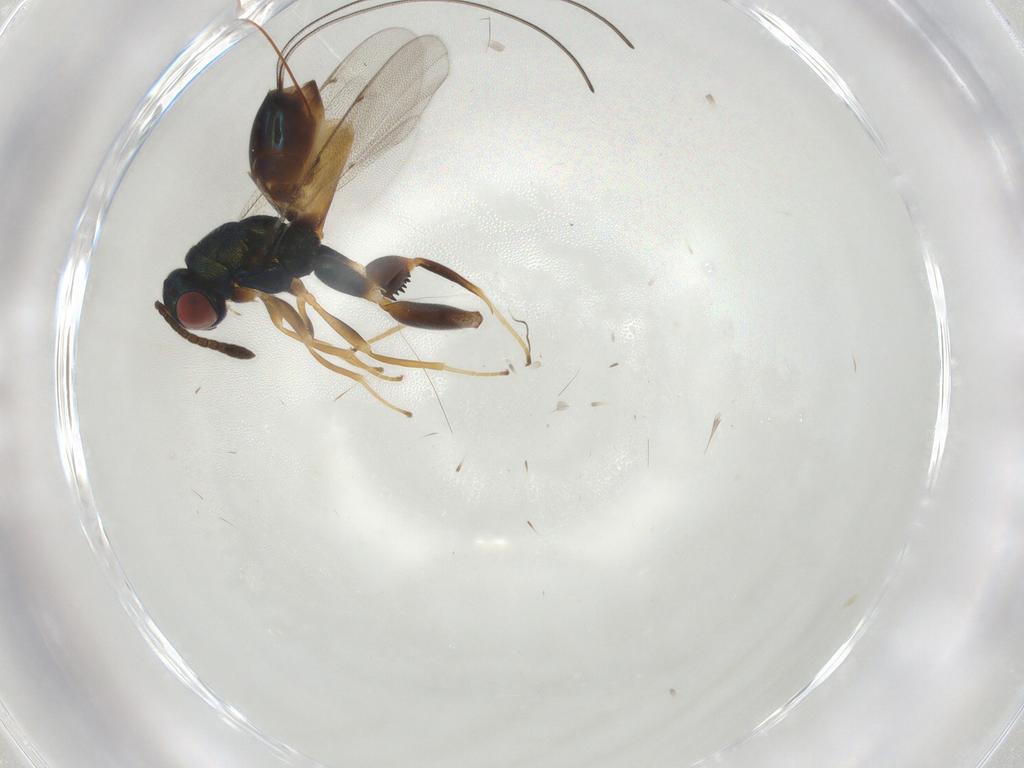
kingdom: Animalia
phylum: Arthropoda
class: Insecta
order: Hymenoptera
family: Torymidae
